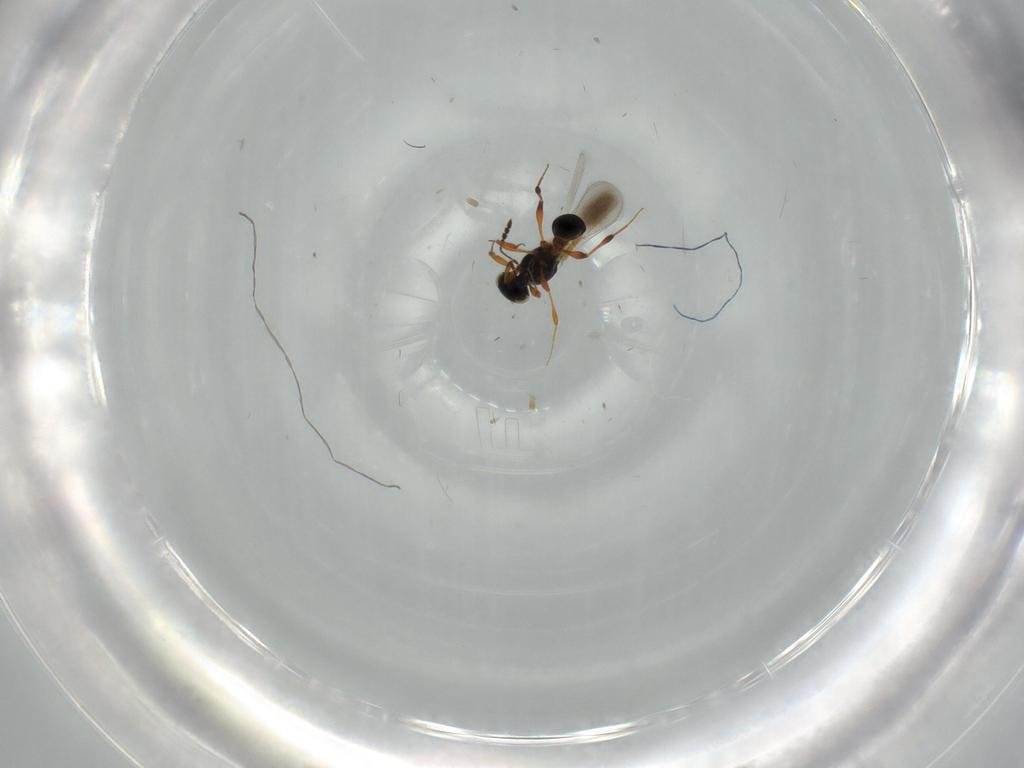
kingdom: Animalia
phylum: Arthropoda
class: Insecta
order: Hymenoptera
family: Platygastridae
